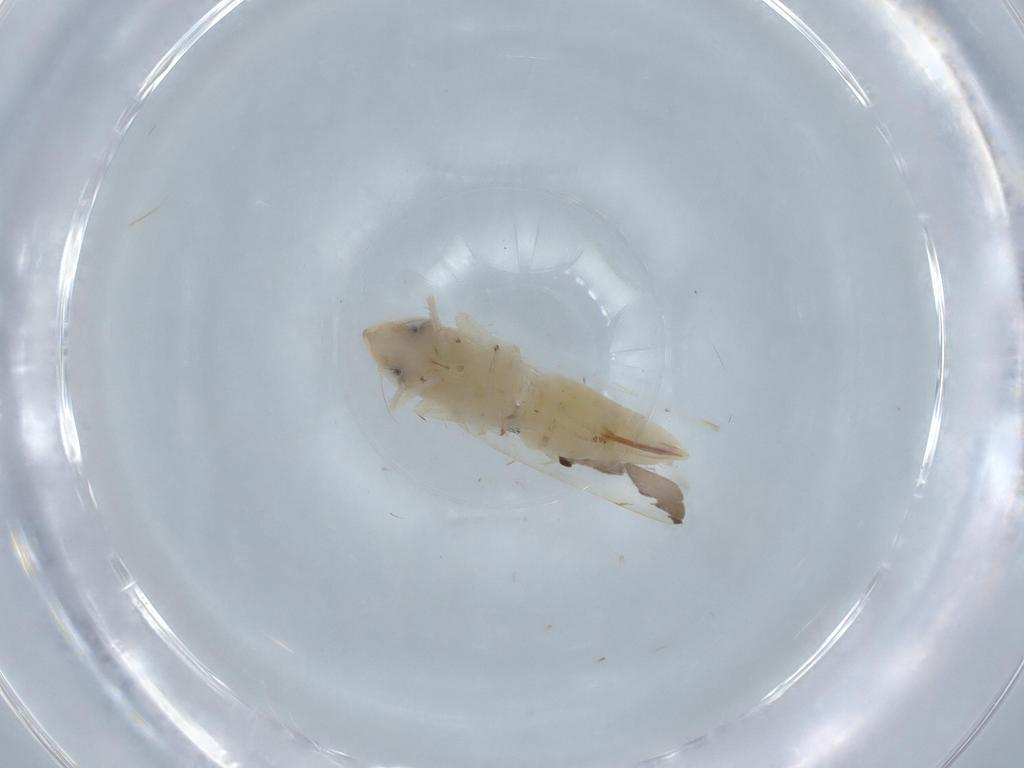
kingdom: Animalia
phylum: Arthropoda
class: Insecta
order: Hemiptera
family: Cicadellidae
